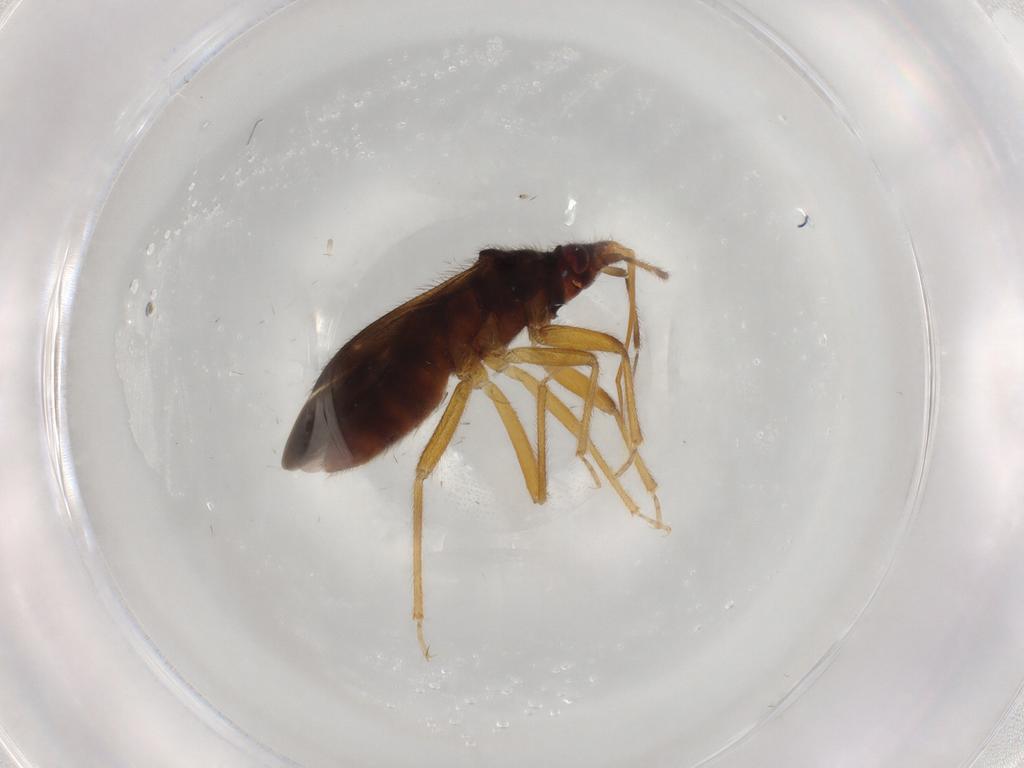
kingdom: Animalia
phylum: Arthropoda
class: Insecta
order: Hemiptera
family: Anthocoridae
